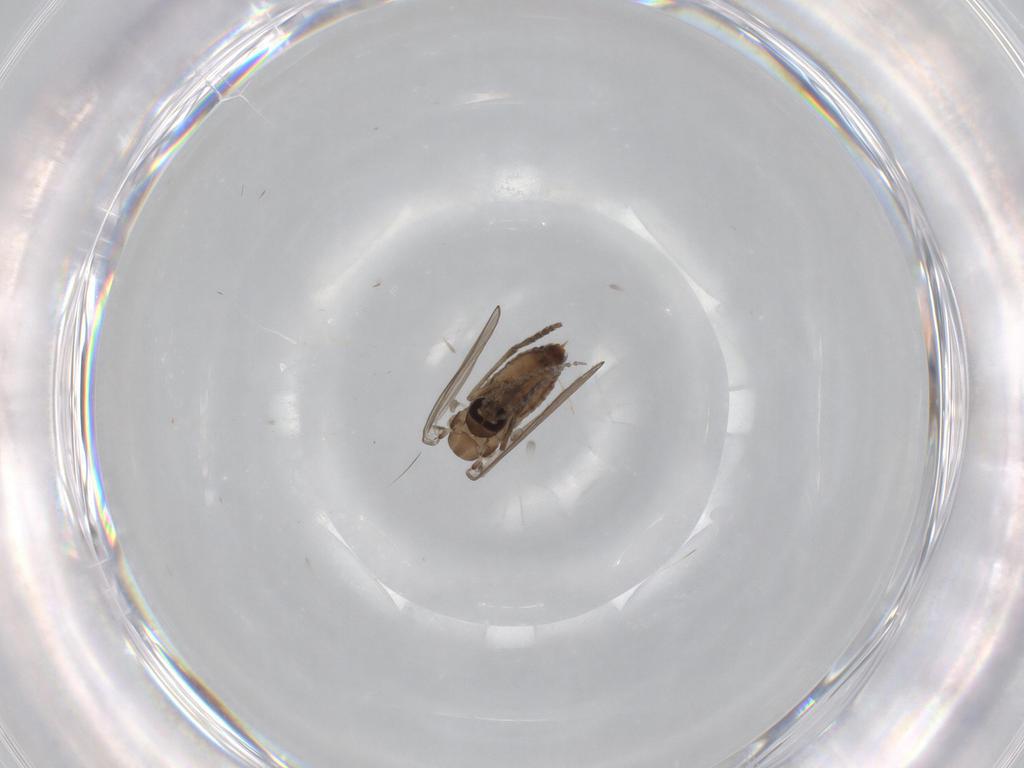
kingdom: Animalia
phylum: Arthropoda
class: Insecta
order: Diptera
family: Psychodidae
